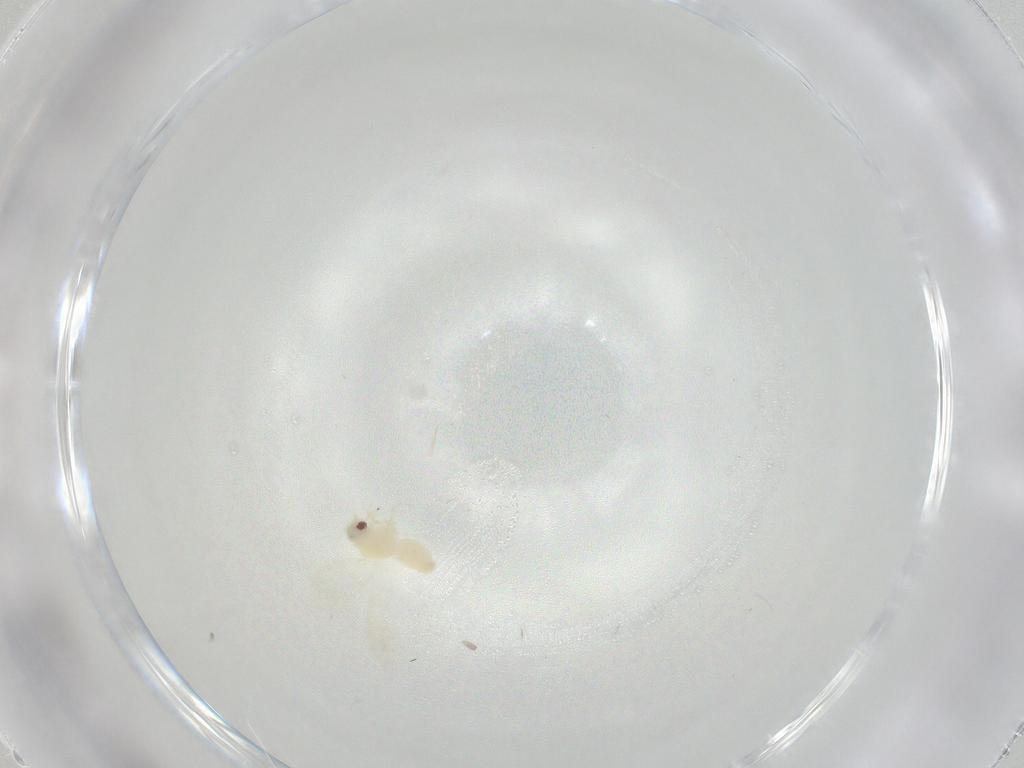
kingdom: Animalia
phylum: Arthropoda
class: Insecta
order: Hemiptera
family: Aleyrodidae
